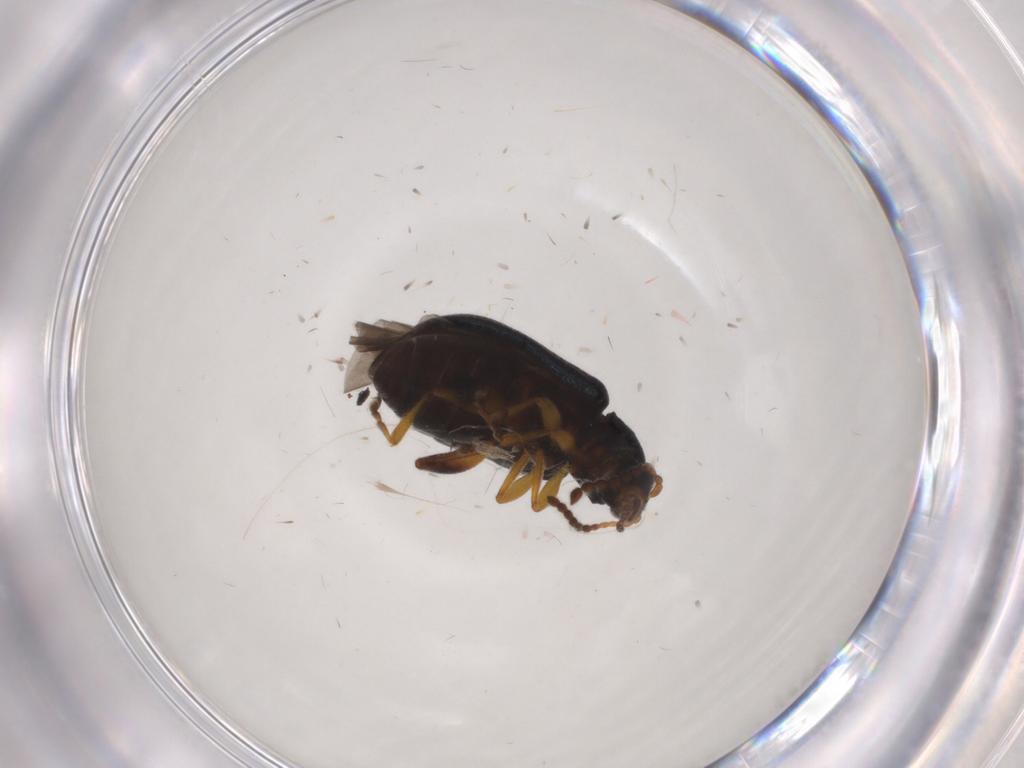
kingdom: Animalia
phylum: Arthropoda
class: Insecta
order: Coleoptera
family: Chrysomelidae
